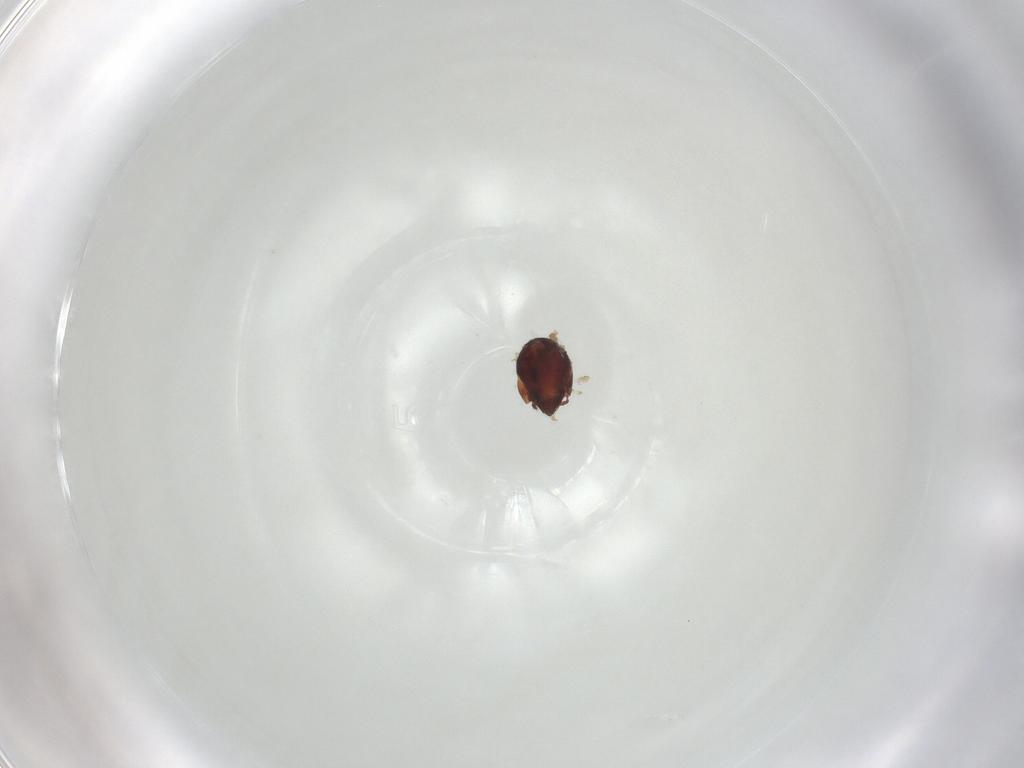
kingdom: Animalia
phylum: Arthropoda
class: Arachnida
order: Sarcoptiformes
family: Humerobatidae
